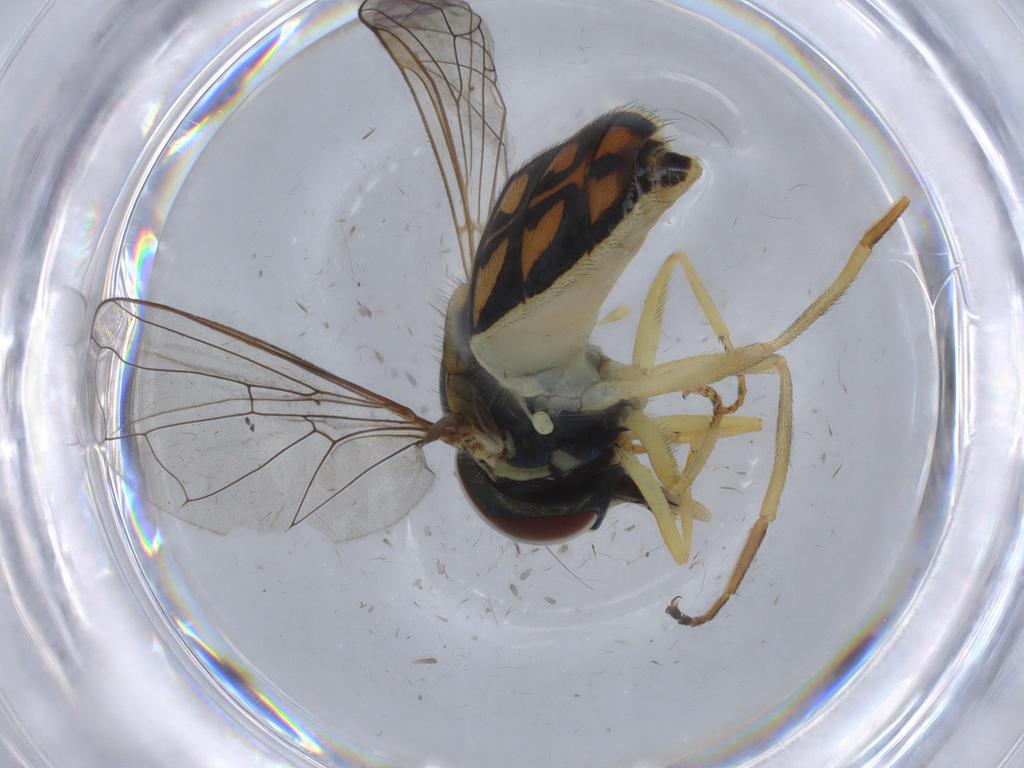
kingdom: Animalia
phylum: Arthropoda
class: Insecta
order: Diptera
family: Syrphidae
